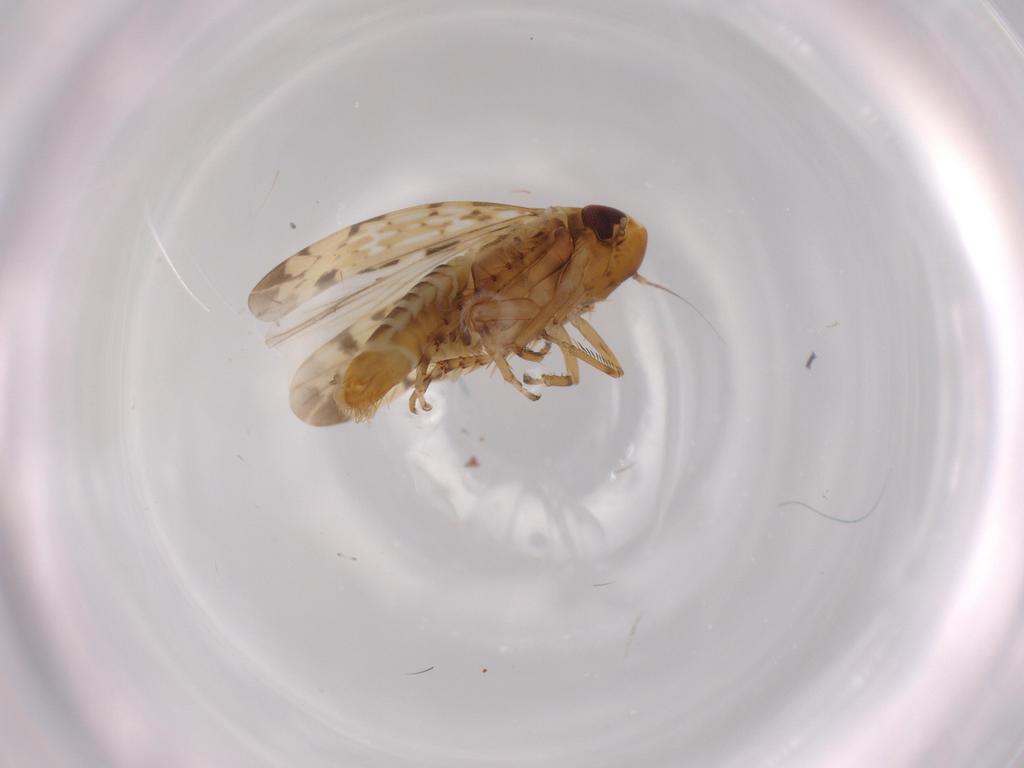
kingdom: Animalia
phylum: Arthropoda
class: Insecta
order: Hemiptera
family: Cicadellidae
